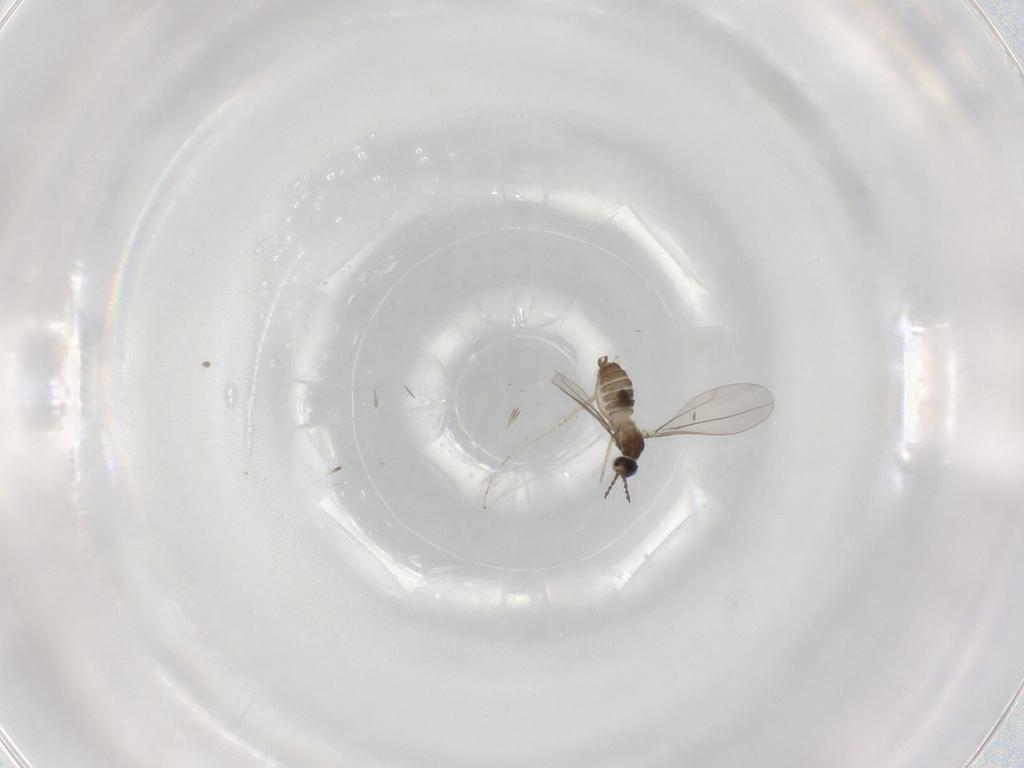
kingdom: Animalia
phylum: Arthropoda
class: Insecta
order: Diptera
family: Cecidomyiidae
